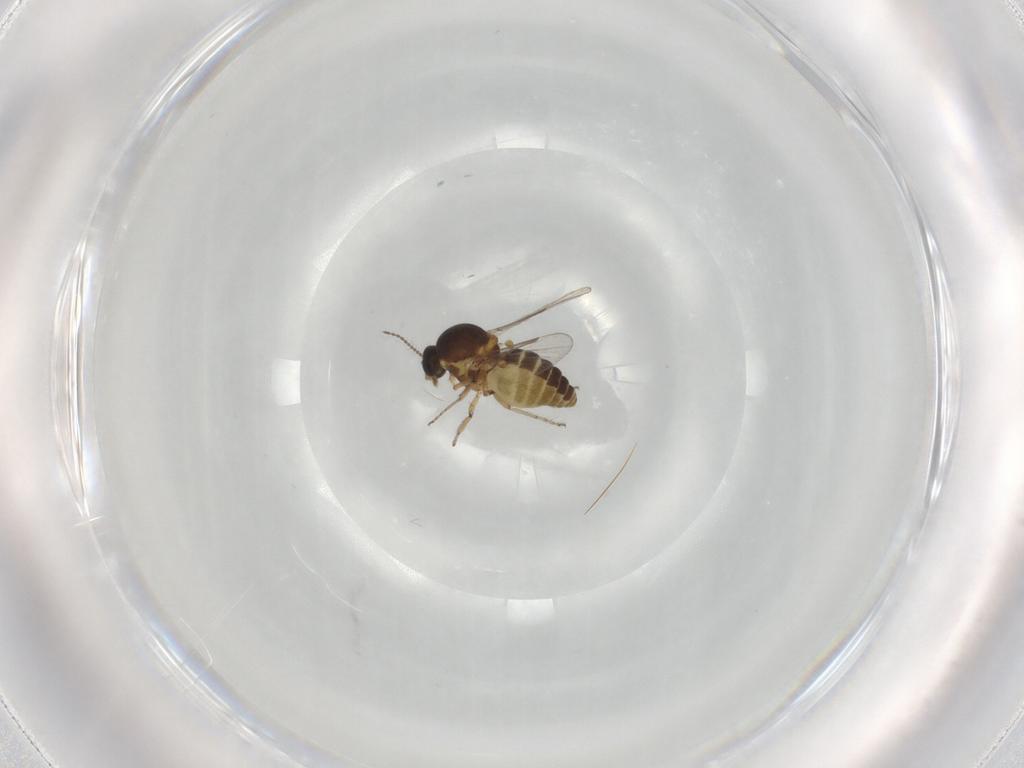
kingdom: Animalia
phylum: Arthropoda
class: Insecta
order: Diptera
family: Ceratopogonidae
